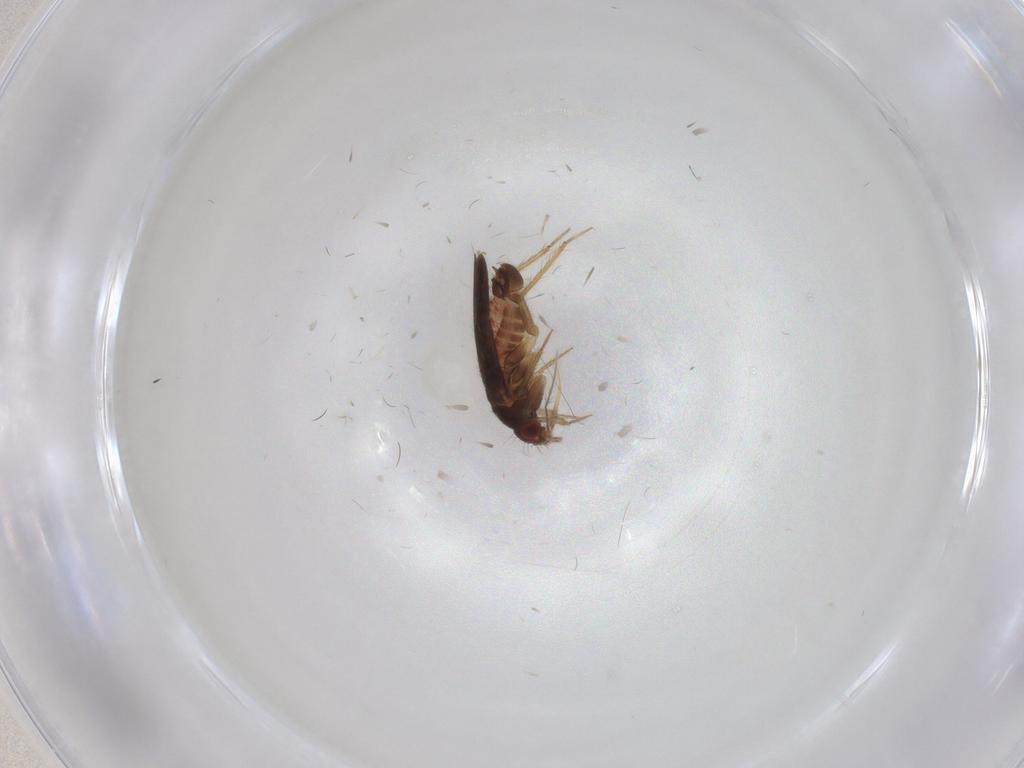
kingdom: Animalia
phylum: Arthropoda
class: Insecta
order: Hemiptera
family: Ceratocombidae
